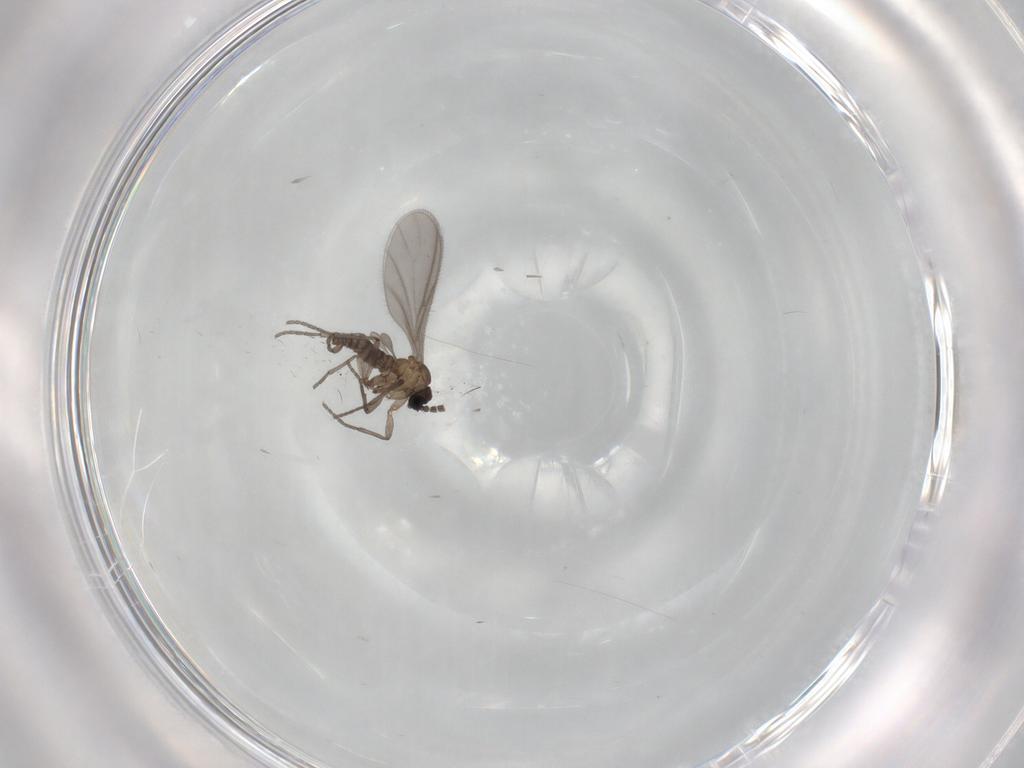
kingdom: Animalia
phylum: Arthropoda
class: Insecta
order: Diptera
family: Sciaridae
